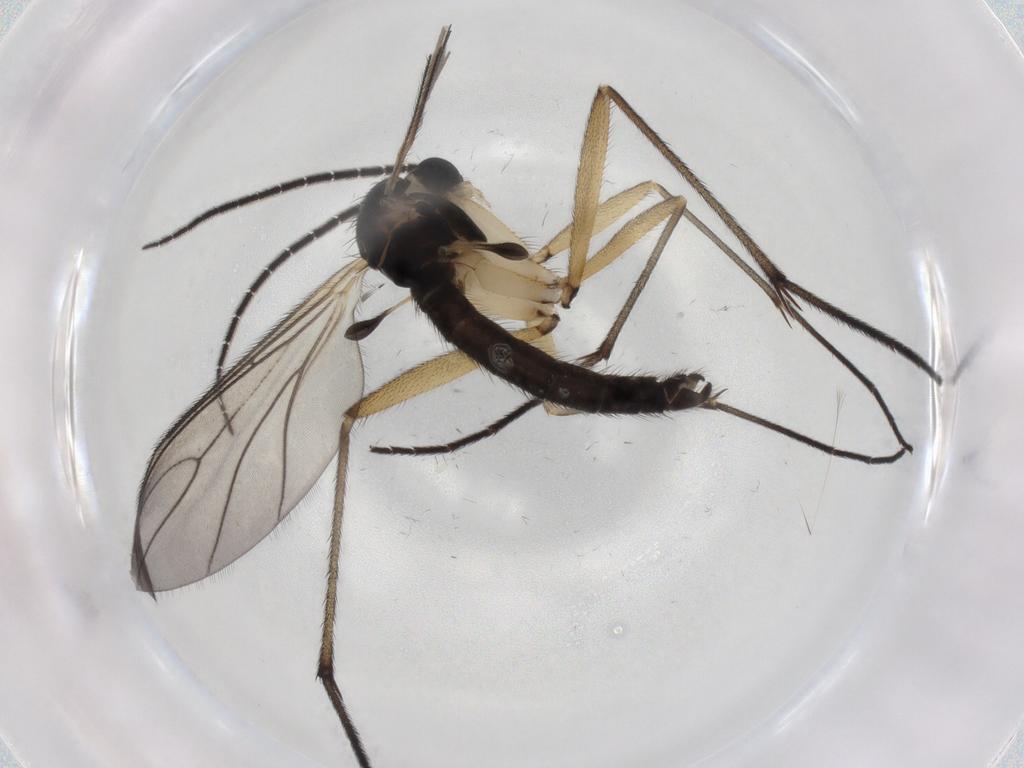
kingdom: Animalia
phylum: Arthropoda
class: Insecta
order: Diptera
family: Sciaridae
